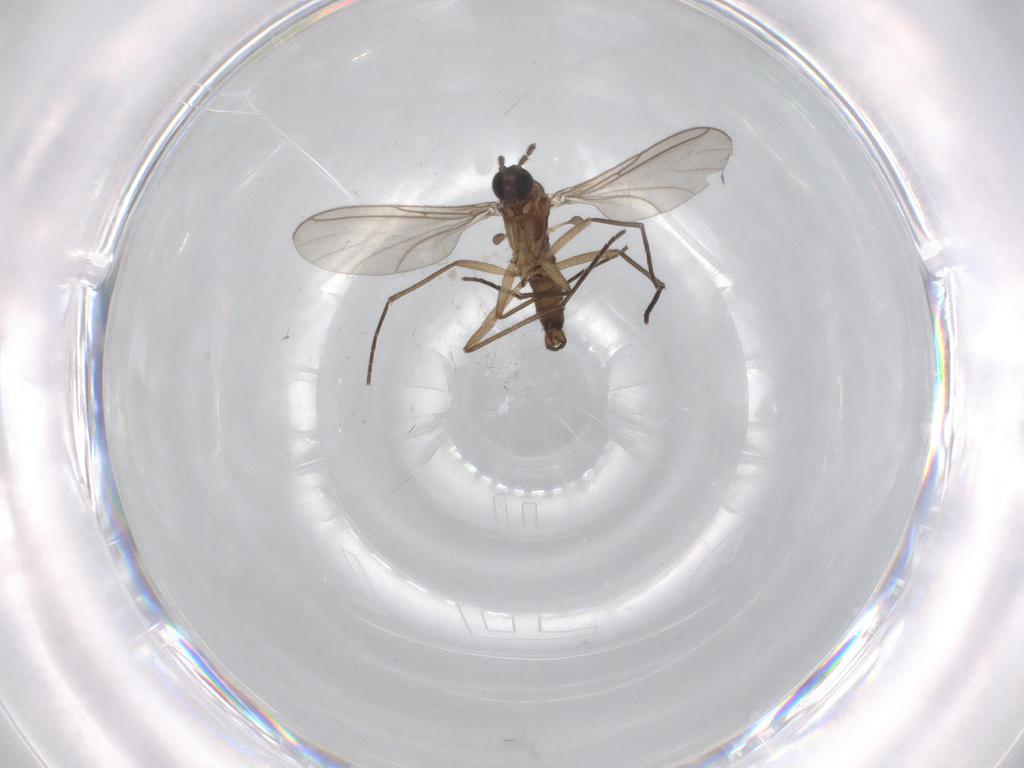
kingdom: Animalia
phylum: Arthropoda
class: Insecta
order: Diptera
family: Sciaridae
